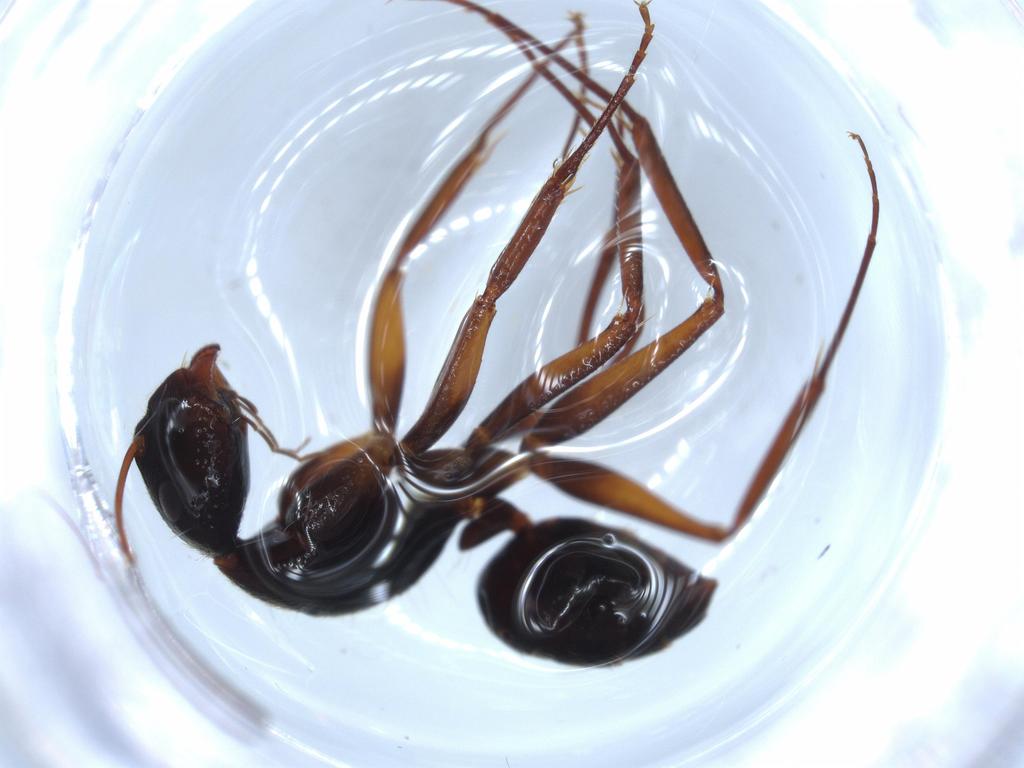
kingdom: Animalia
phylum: Arthropoda
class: Insecta
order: Hymenoptera
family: Formicidae
